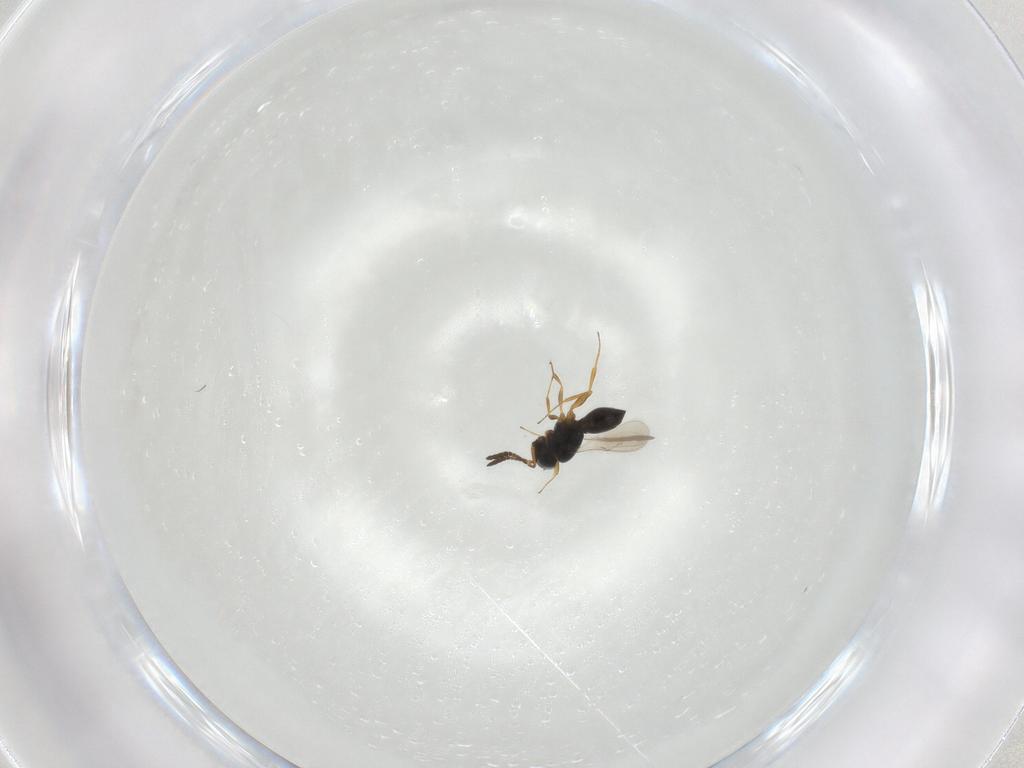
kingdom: Animalia
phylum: Arthropoda
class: Insecta
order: Hymenoptera
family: Scelionidae
